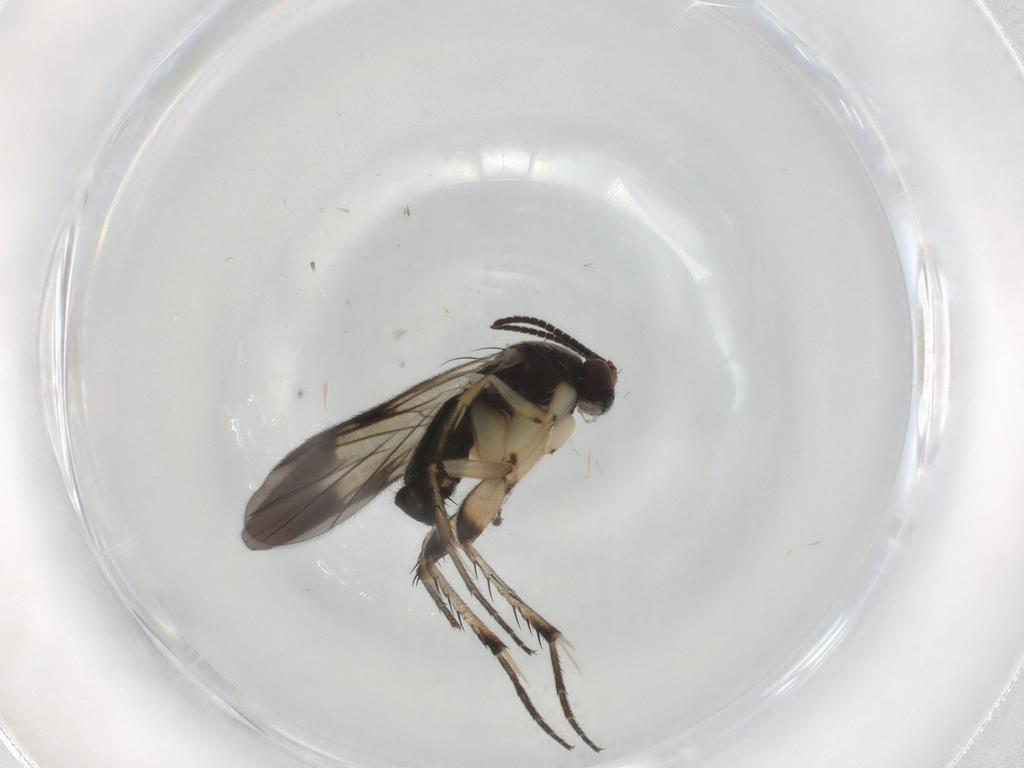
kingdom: Animalia
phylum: Arthropoda
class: Insecta
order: Diptera
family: Mycetophilidae
